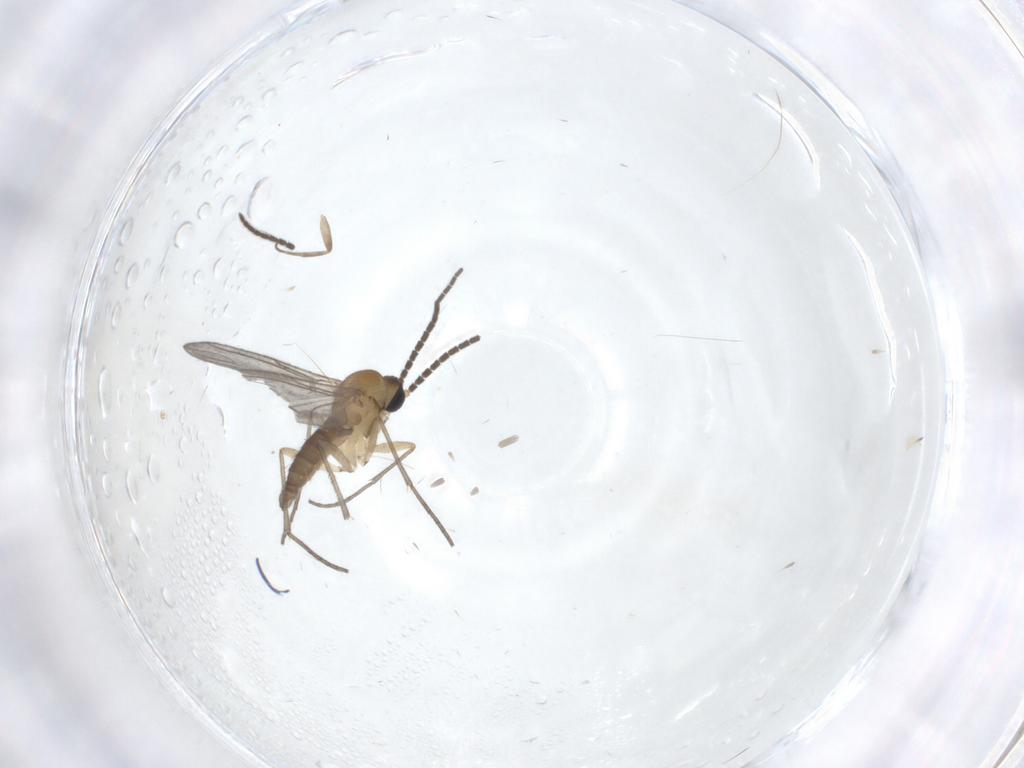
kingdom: Animalia
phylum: Arthropoda
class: Insecta
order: Diptera
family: Sciaridae
